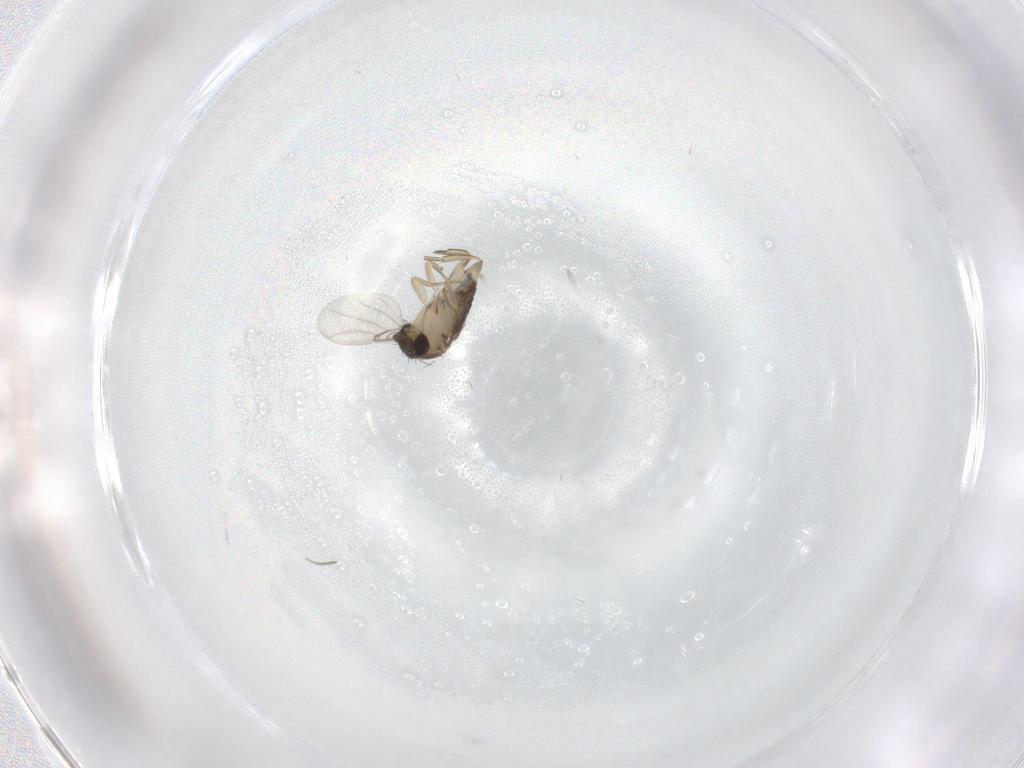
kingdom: Animalia
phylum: Arthropoda
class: Insecta
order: Diptera
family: Phoridae
